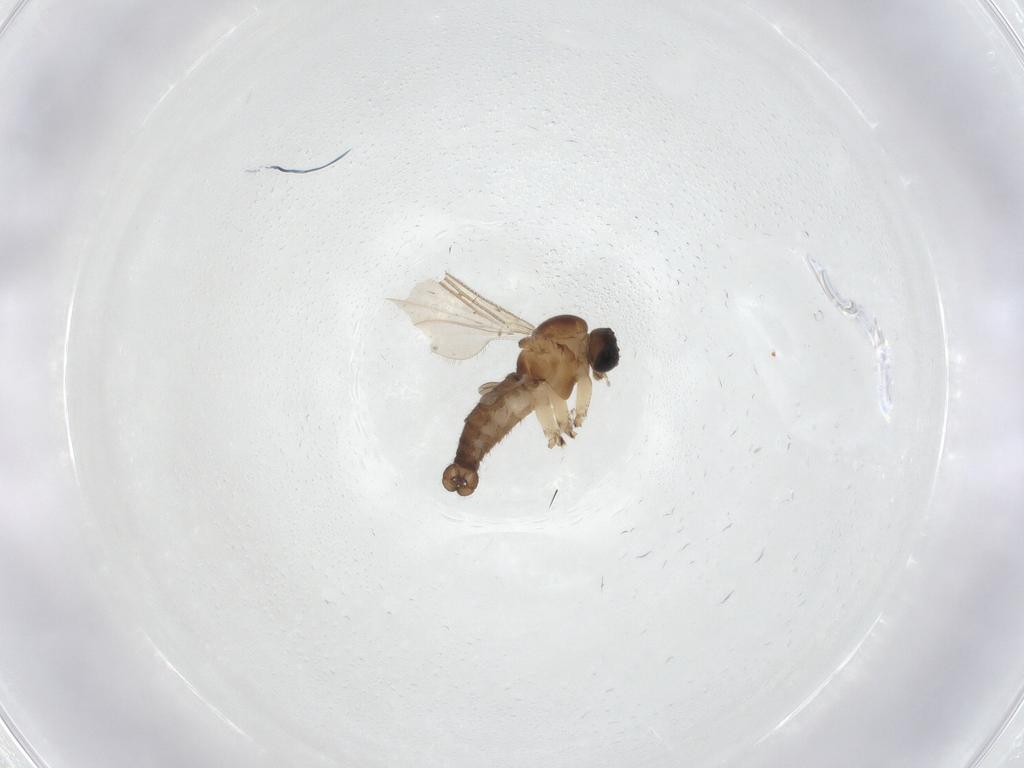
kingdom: Animalia
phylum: Arthropoda
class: Insecta
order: Diptera
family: Sciaridae
